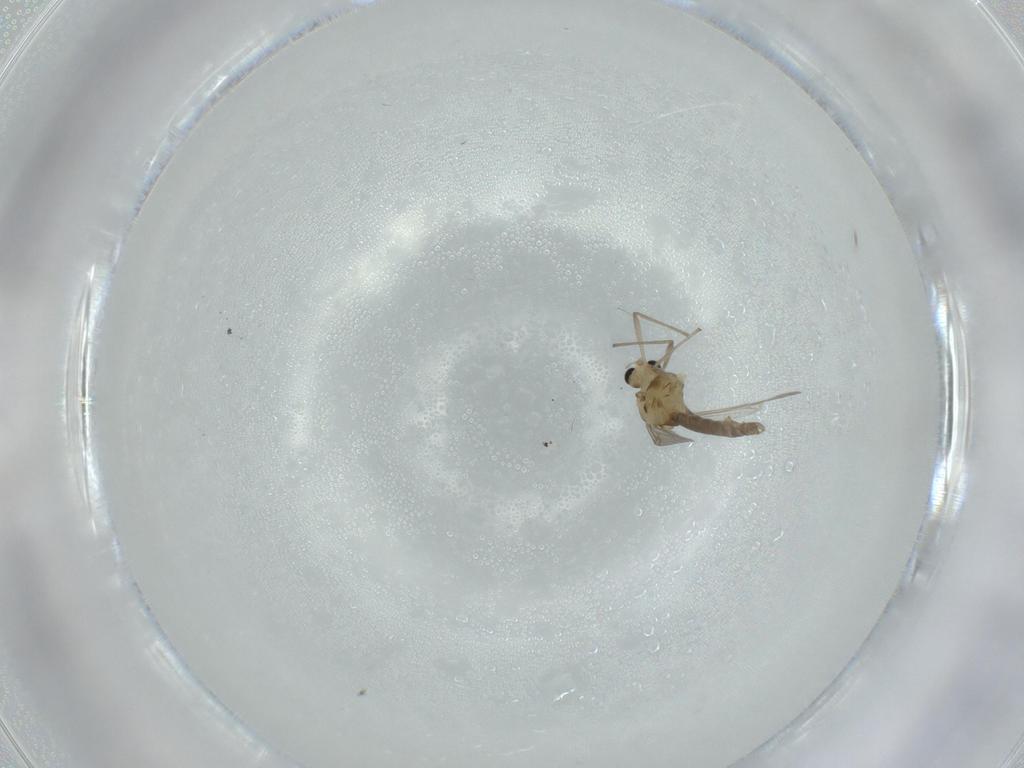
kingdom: Animalia
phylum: Arthropoda
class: Insecta
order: Diptera
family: Chironomidae
